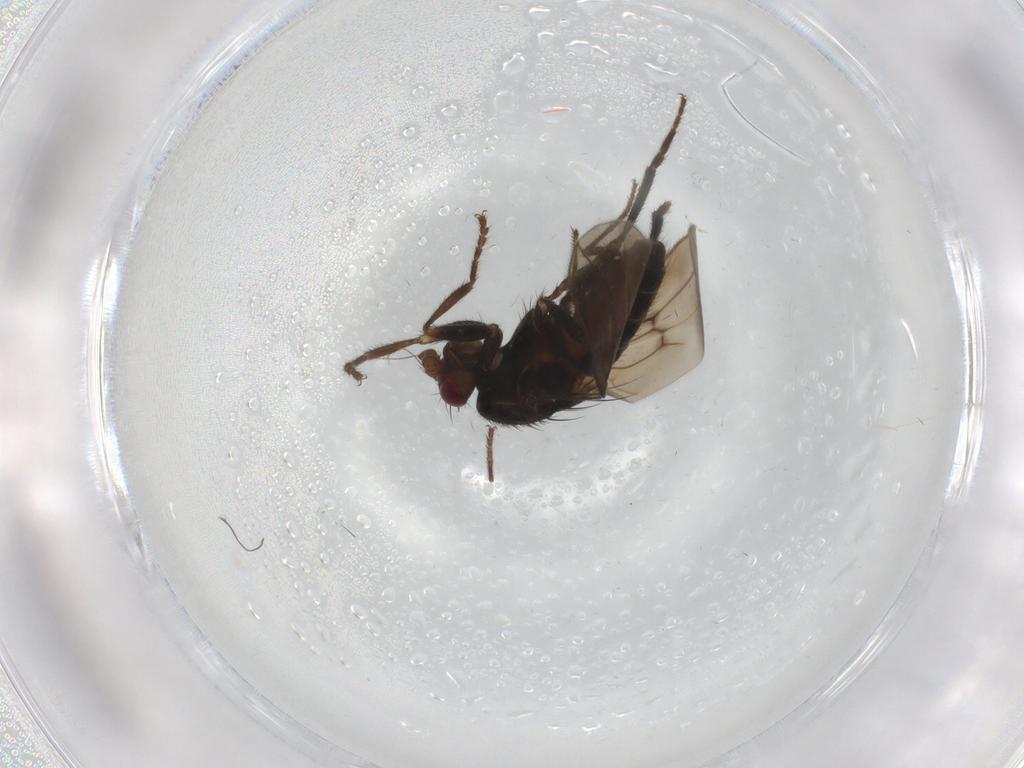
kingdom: Animalia
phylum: Arthropoda
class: Insecta
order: Diptera
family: Sphaeroceridae
